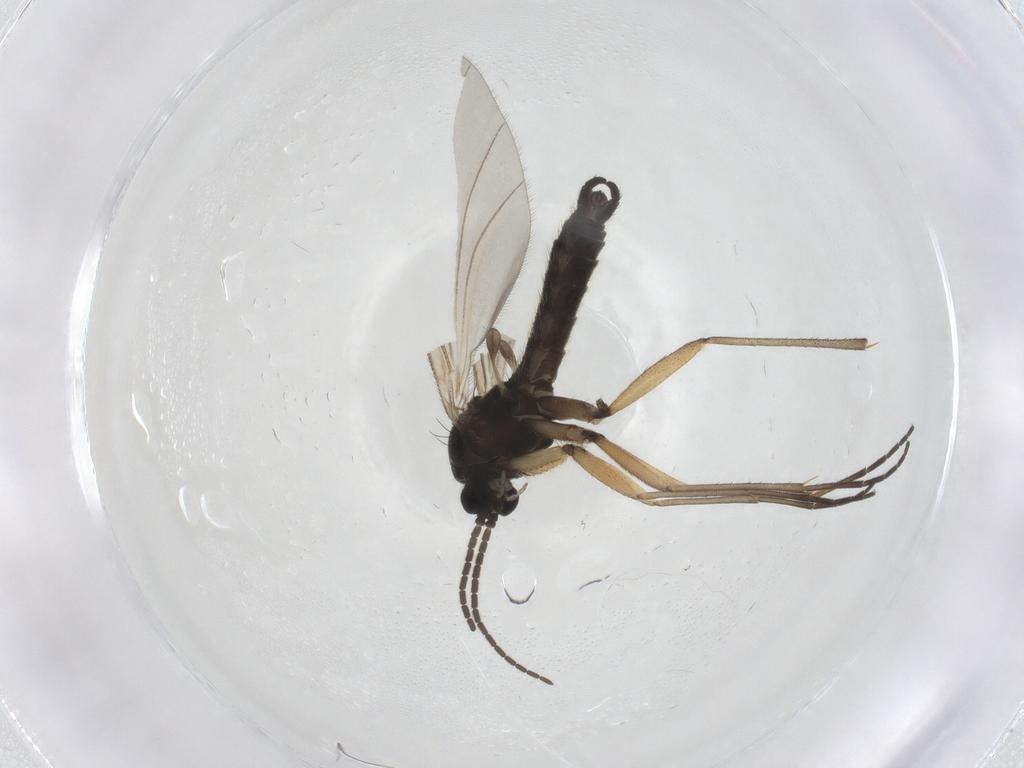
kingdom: Animalia
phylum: Arthropoda
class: Insecta
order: Diptera
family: Sciaridae
